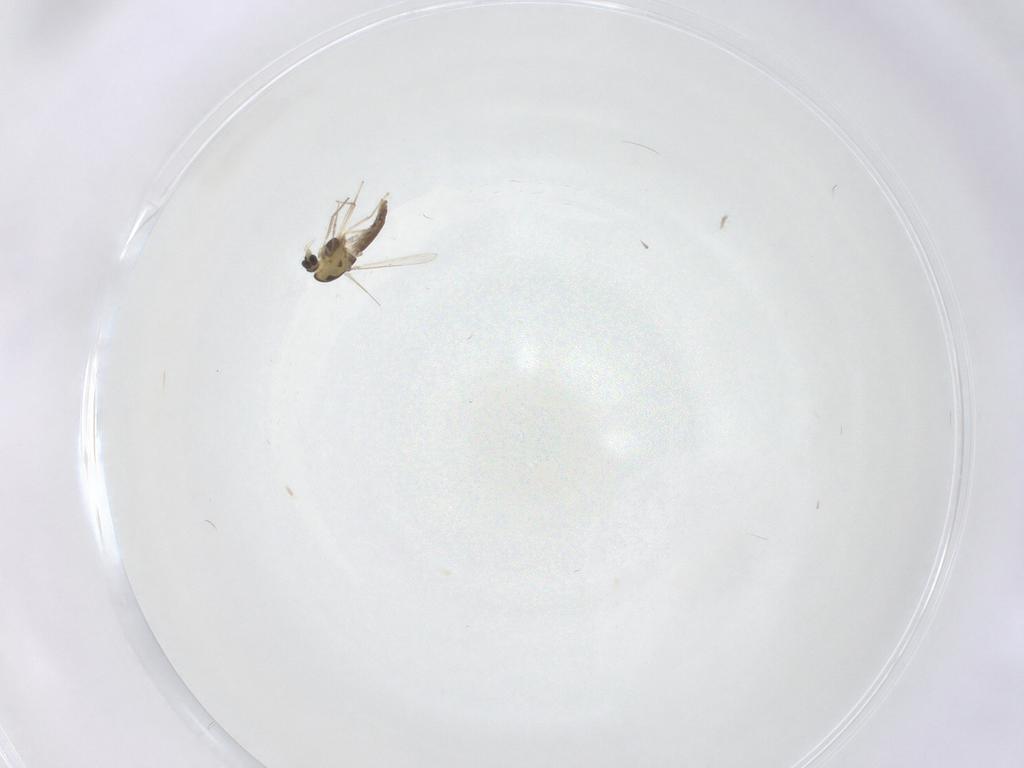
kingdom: Animalia
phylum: Arthropoda
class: Insecta
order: Diptera
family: Chironomidae
